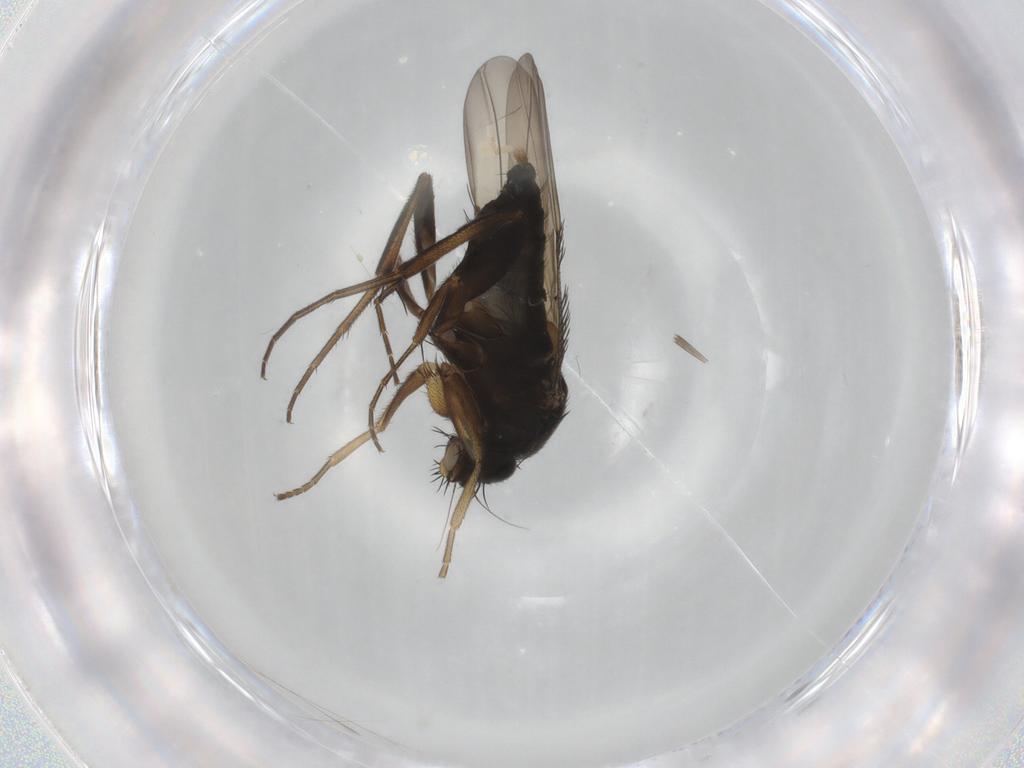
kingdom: Animalia
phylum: Arthropoda
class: Insecta
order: Diptera
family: Phoridae
